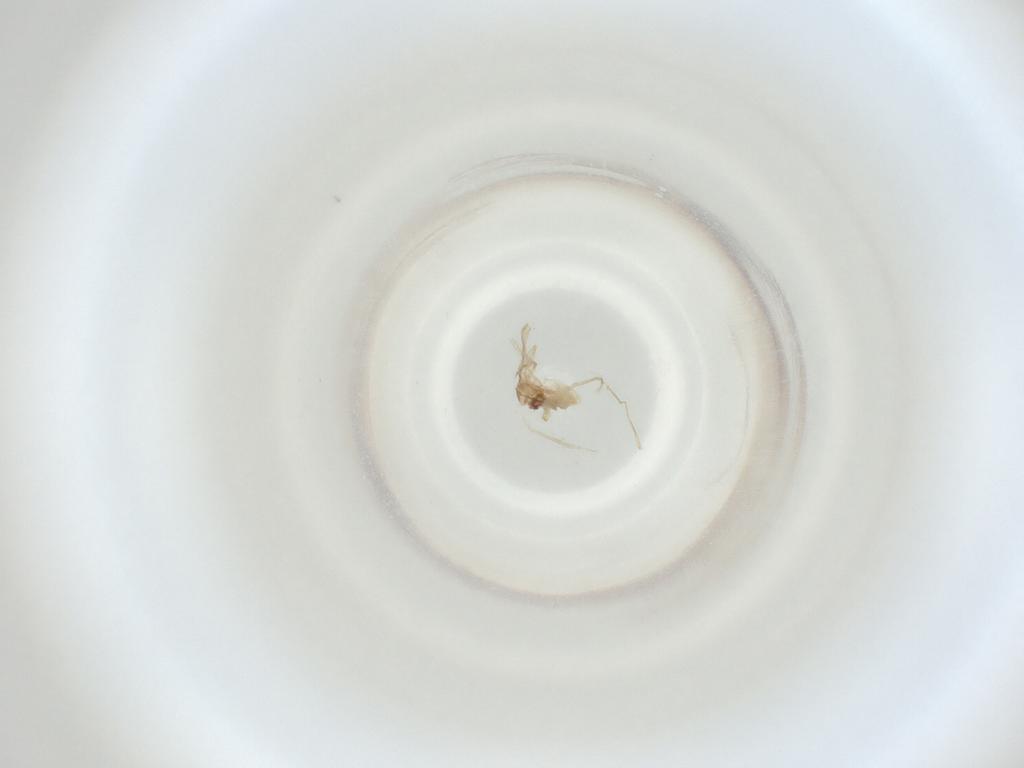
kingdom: Animalia
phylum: Arthropoda
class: Insecta
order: Diptera
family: Cecidomyiidae
